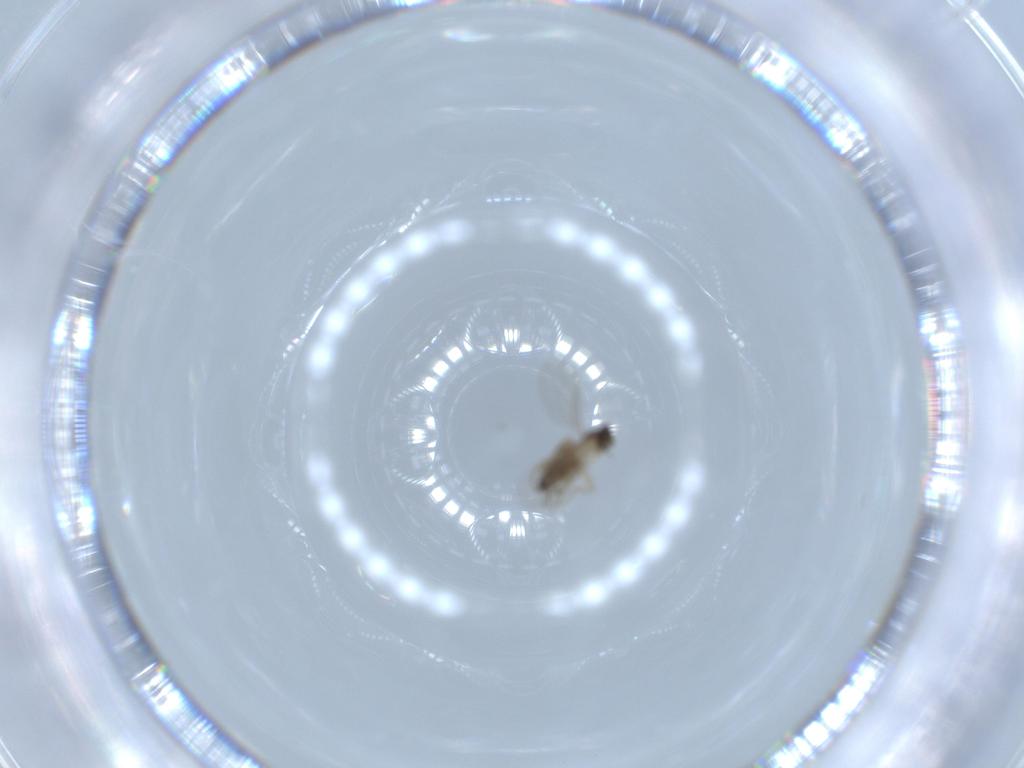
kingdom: Animalia
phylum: Arthropoda
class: Insecta
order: Diptera
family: Phoridae
